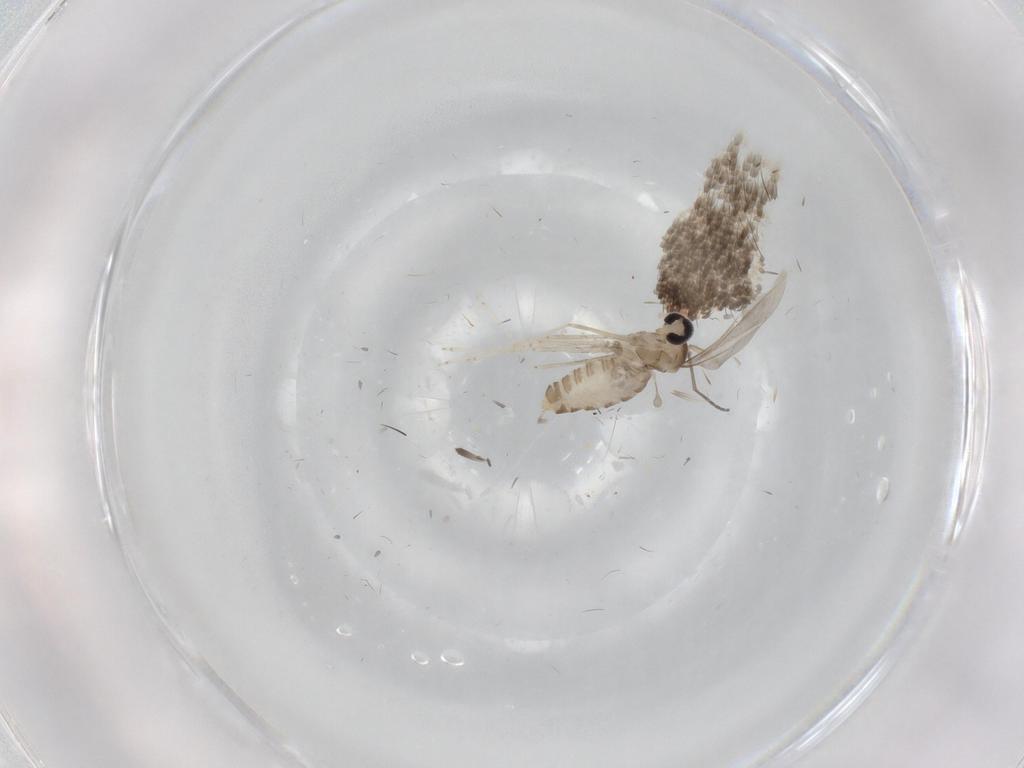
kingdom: Animalia
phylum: Arthropoda
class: Insecta
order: Diptera
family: Cecidomyiidae
